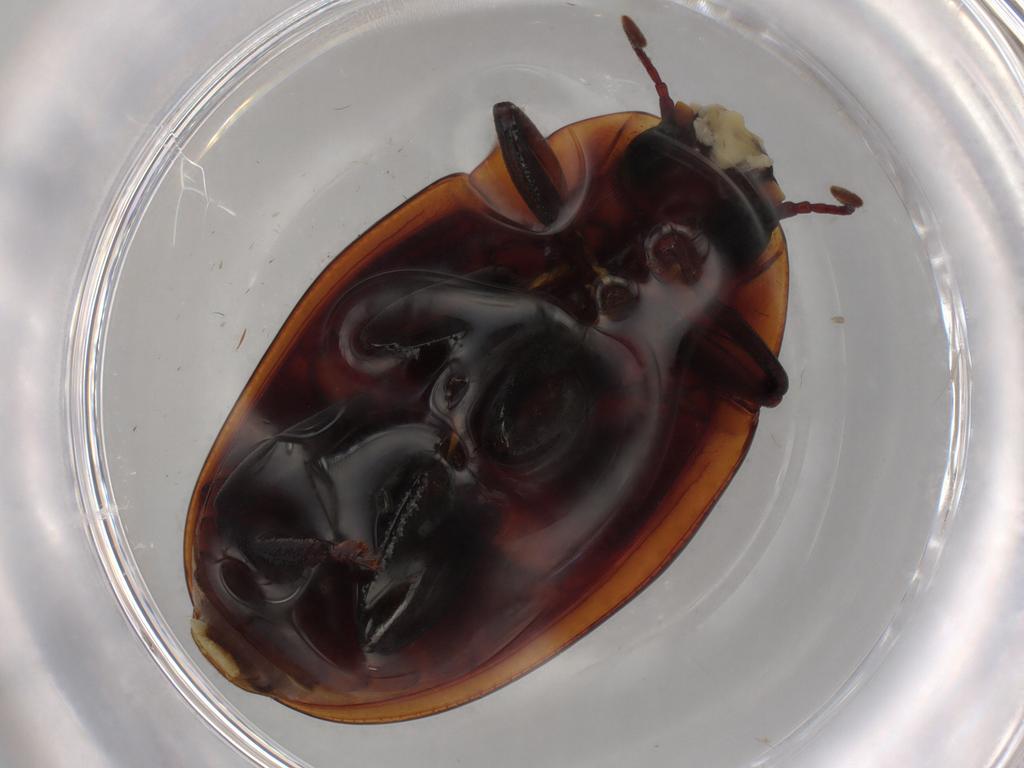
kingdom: Animalia
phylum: Arthropoda
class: Insecta
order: Coleoptera
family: Zopheridae
